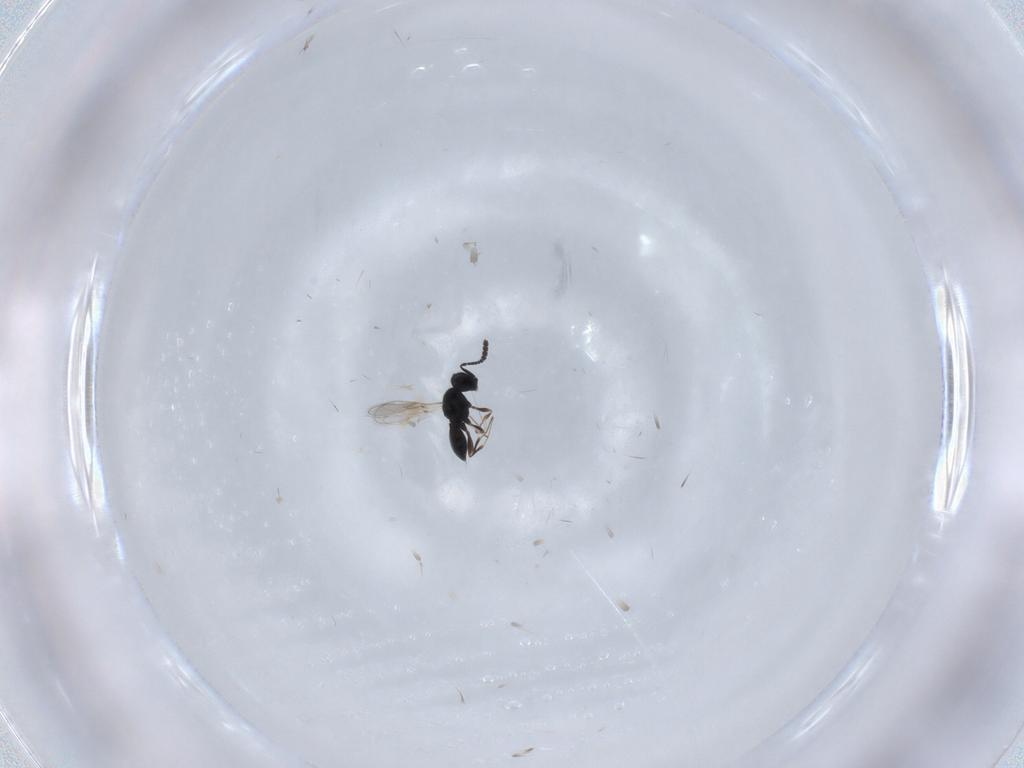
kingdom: Animalia
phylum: Arthropoda
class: Insecta
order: Hymenoptera
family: Scelionidae
